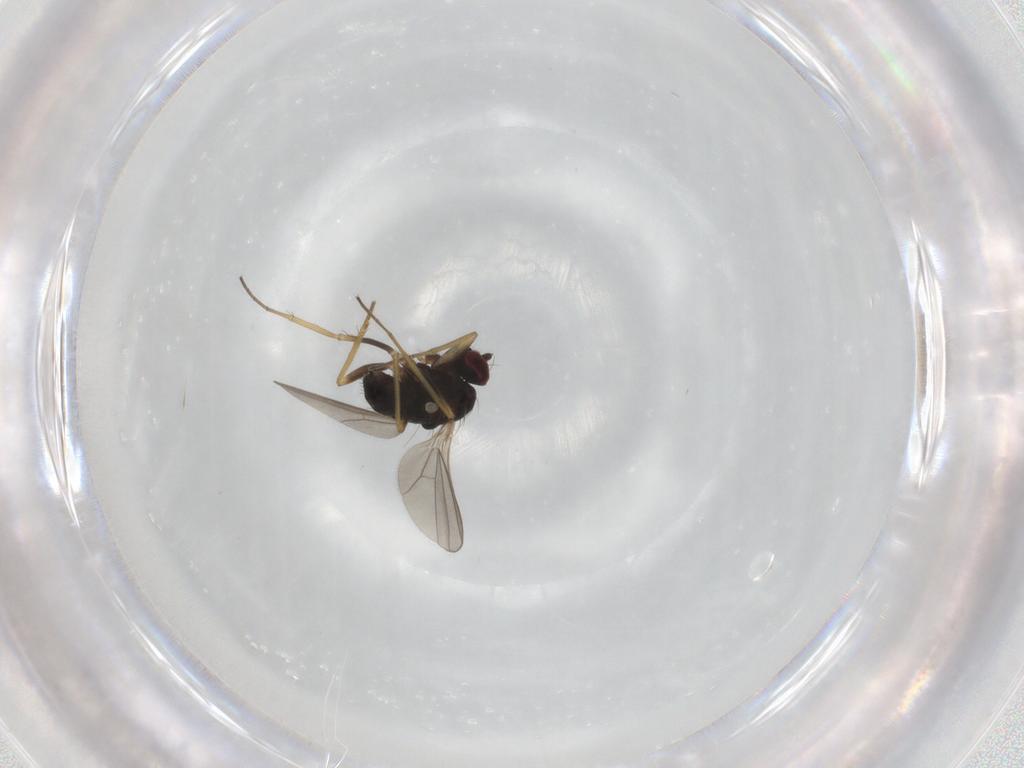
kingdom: Animalia
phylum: Arthropoda
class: Insecta
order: Diptera
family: Dolichopodidae
